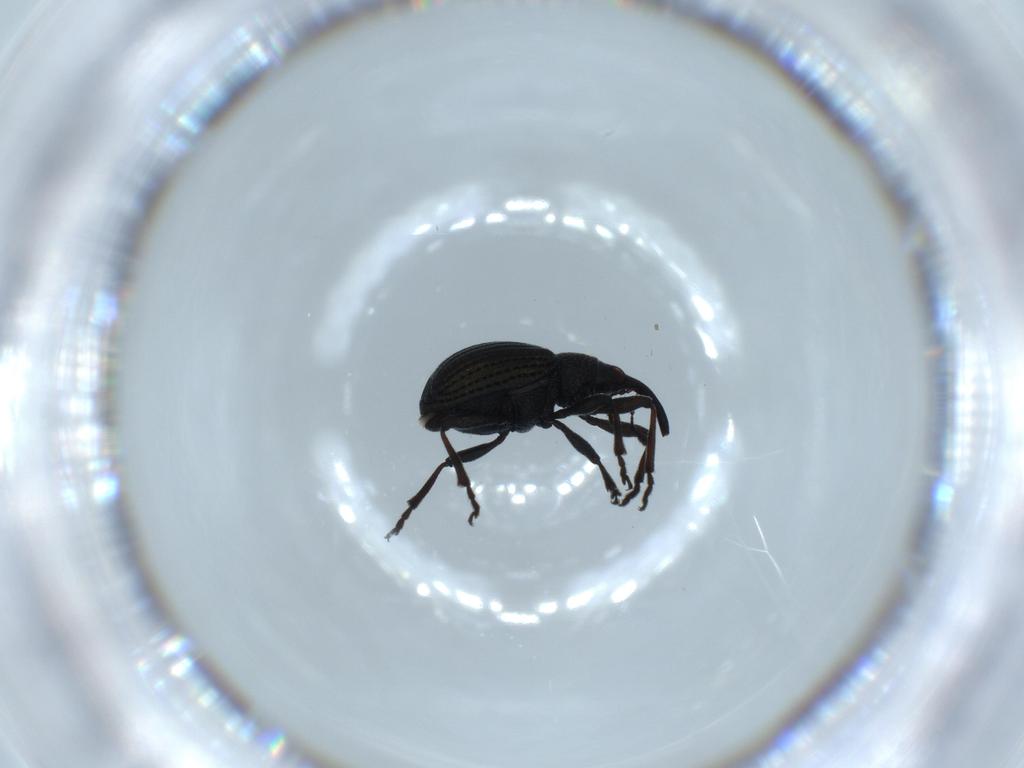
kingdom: Animalia
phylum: Arthropoda
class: Insecta
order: Coleoptera
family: Brentidae
